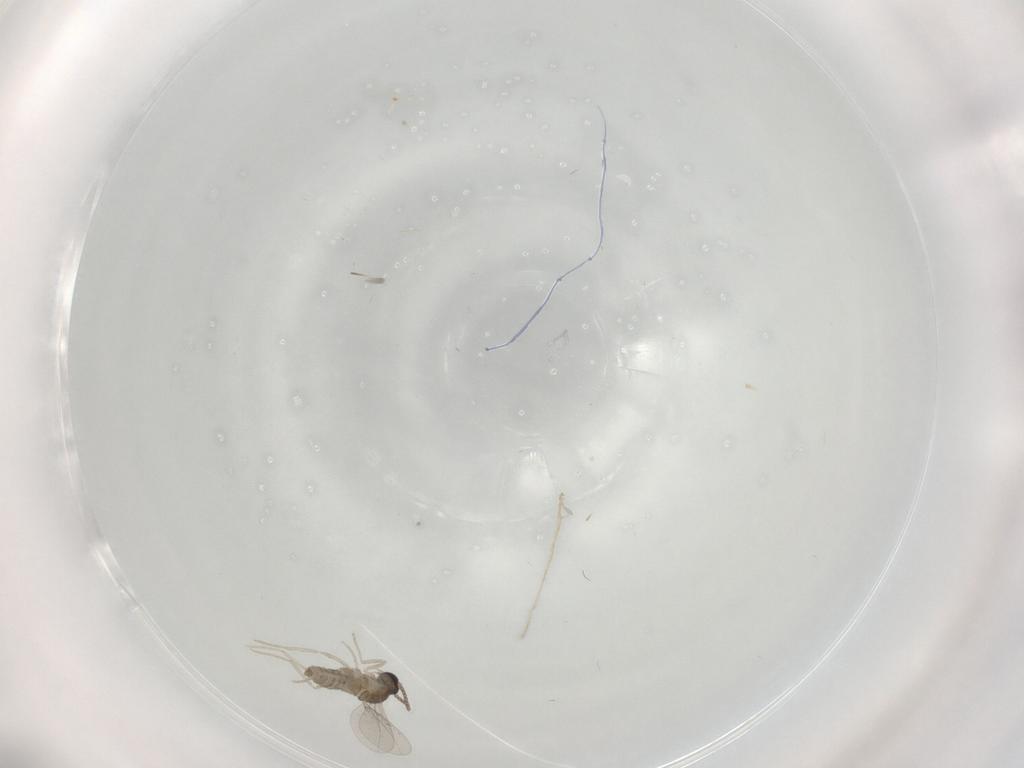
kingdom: Animalia
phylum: Arthropoda
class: Insecta
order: Diptera
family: Cecidomyiidae
